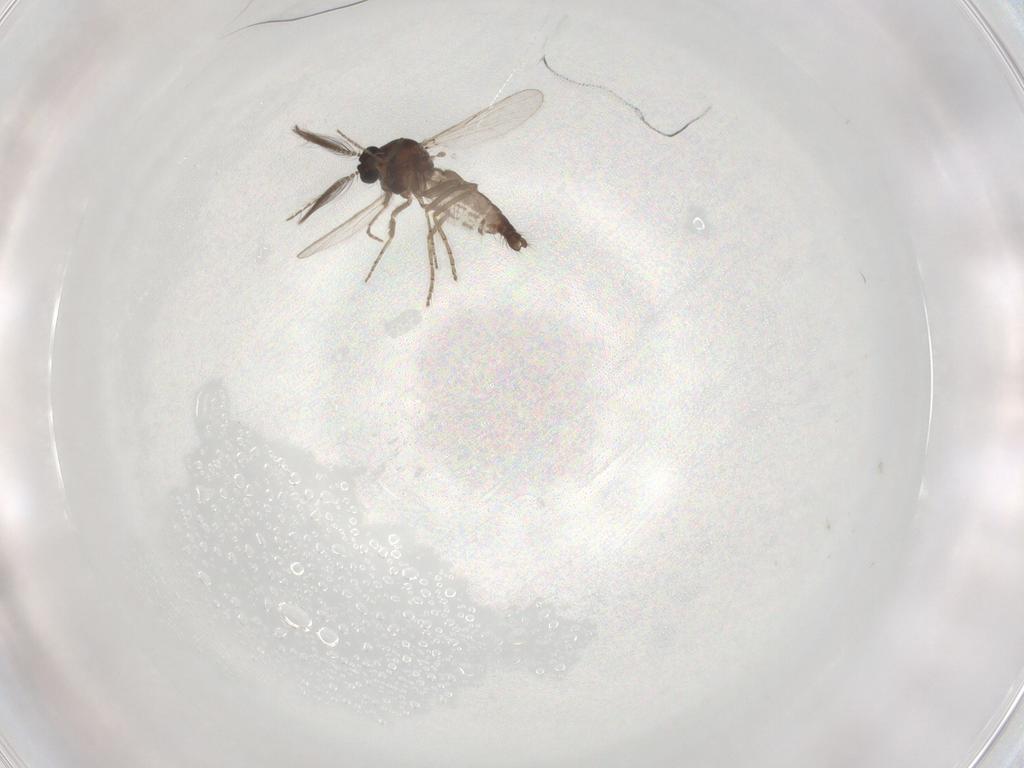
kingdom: Animalia
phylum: Arthropoda
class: Insecta
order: Diptera
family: Ceratopogonidae
